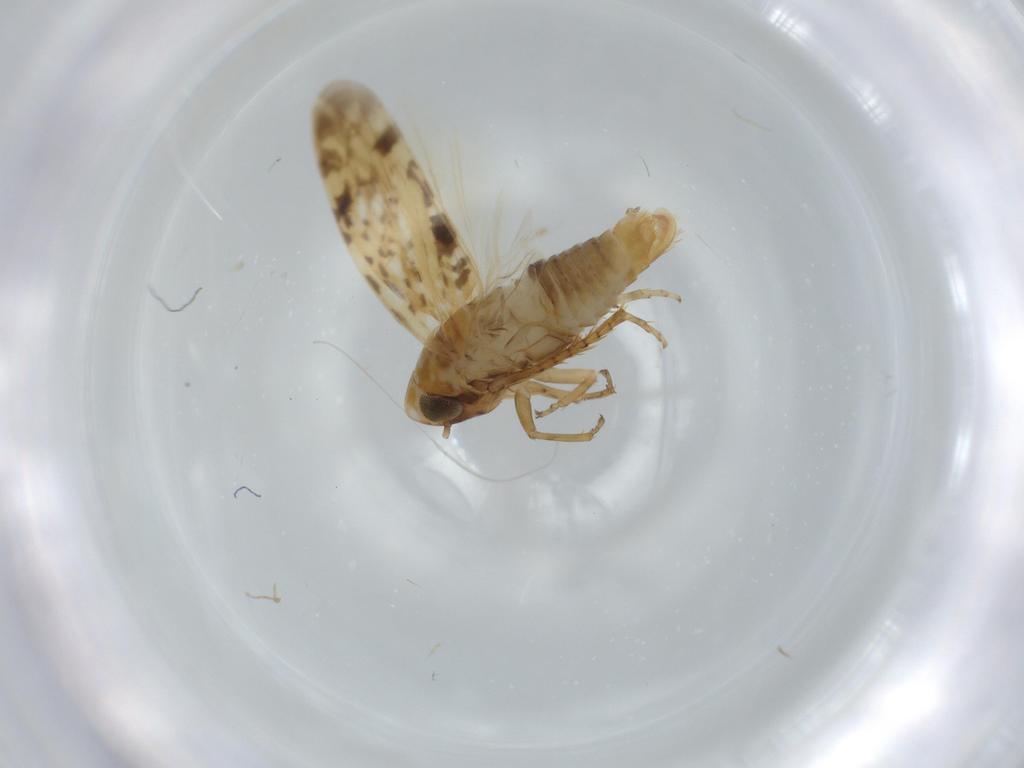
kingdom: Animalia
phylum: Arthropoda
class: Insecta
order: Hemiptera
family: Cicadellidae
